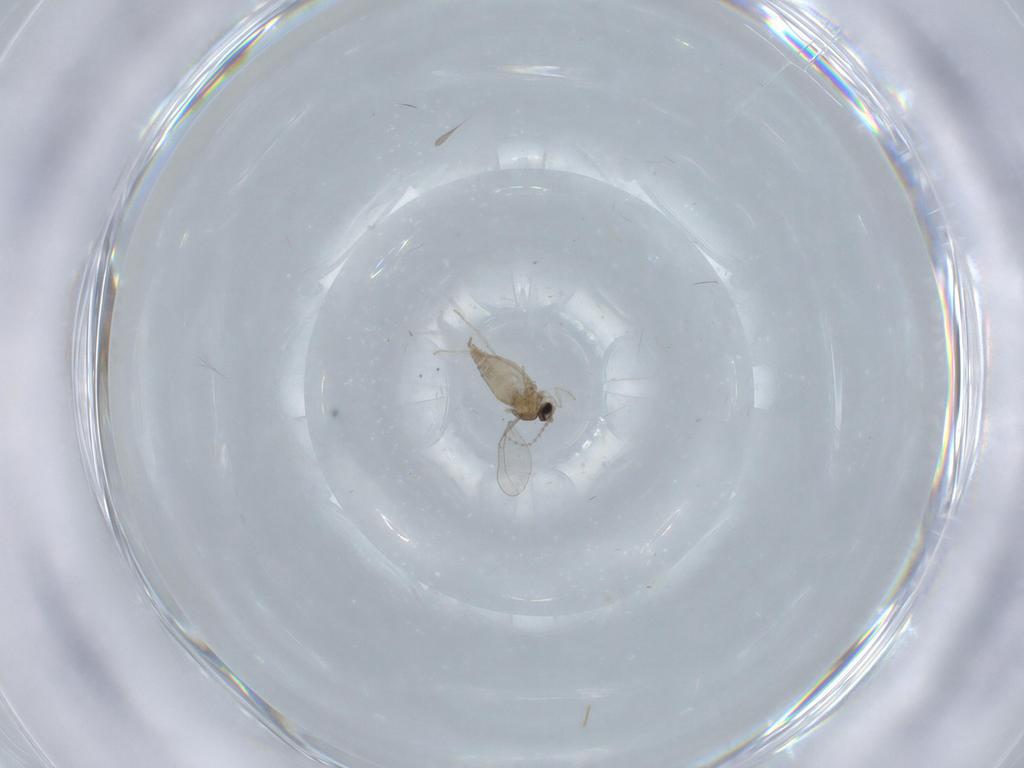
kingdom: Animalia
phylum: Arthropoda
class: Insecta
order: Diptera
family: Cecidomyiidae
